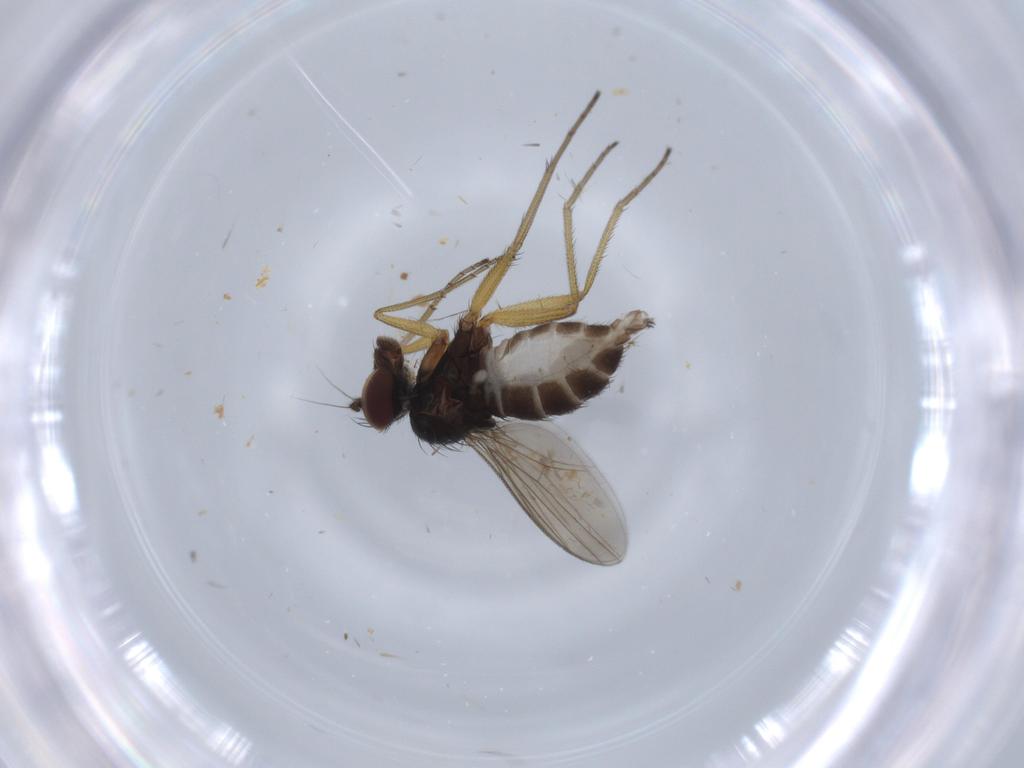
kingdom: Animalia
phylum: Arthropoda
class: Insecta
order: Diptera
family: Dolichopodidae
